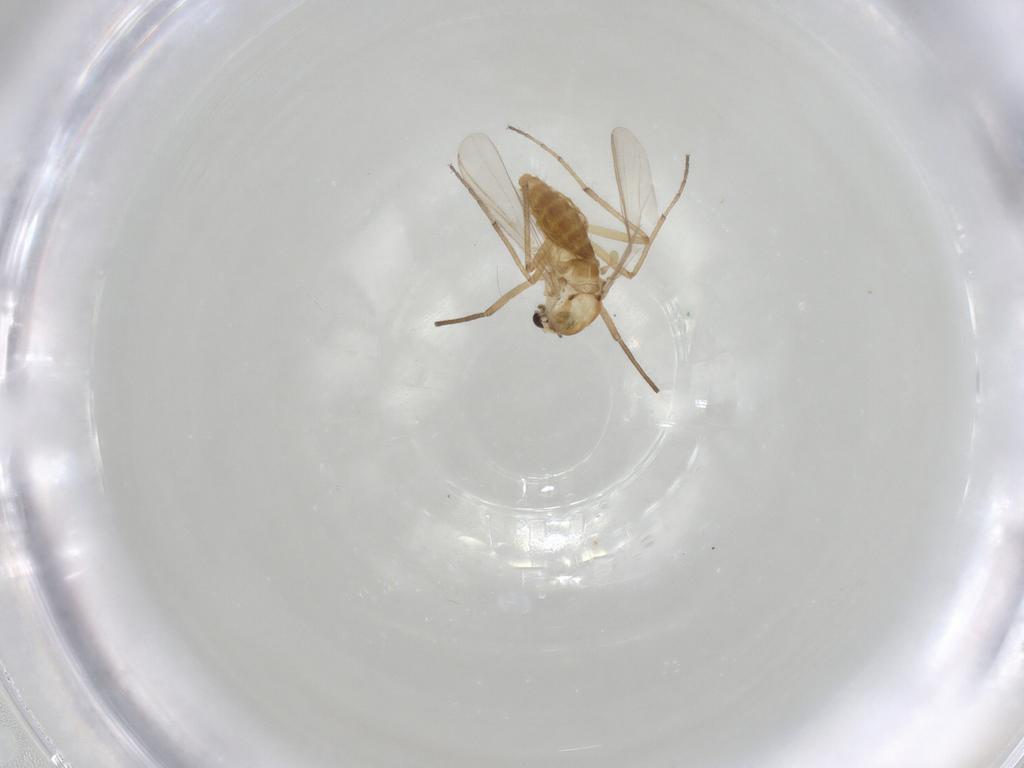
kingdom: Animalia
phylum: Arthropoda
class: Insecta
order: Diptera
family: Chironomidae
